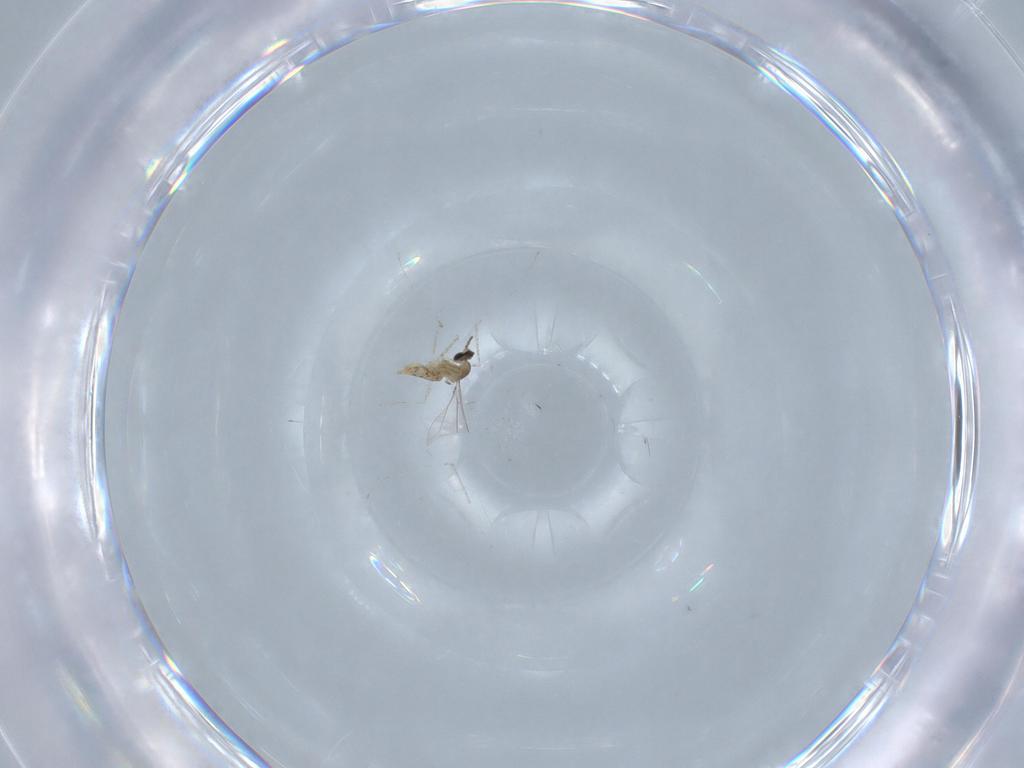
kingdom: Animalia
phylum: Arthropoda
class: Insecta
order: Diptera
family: Cecidomyiidae
